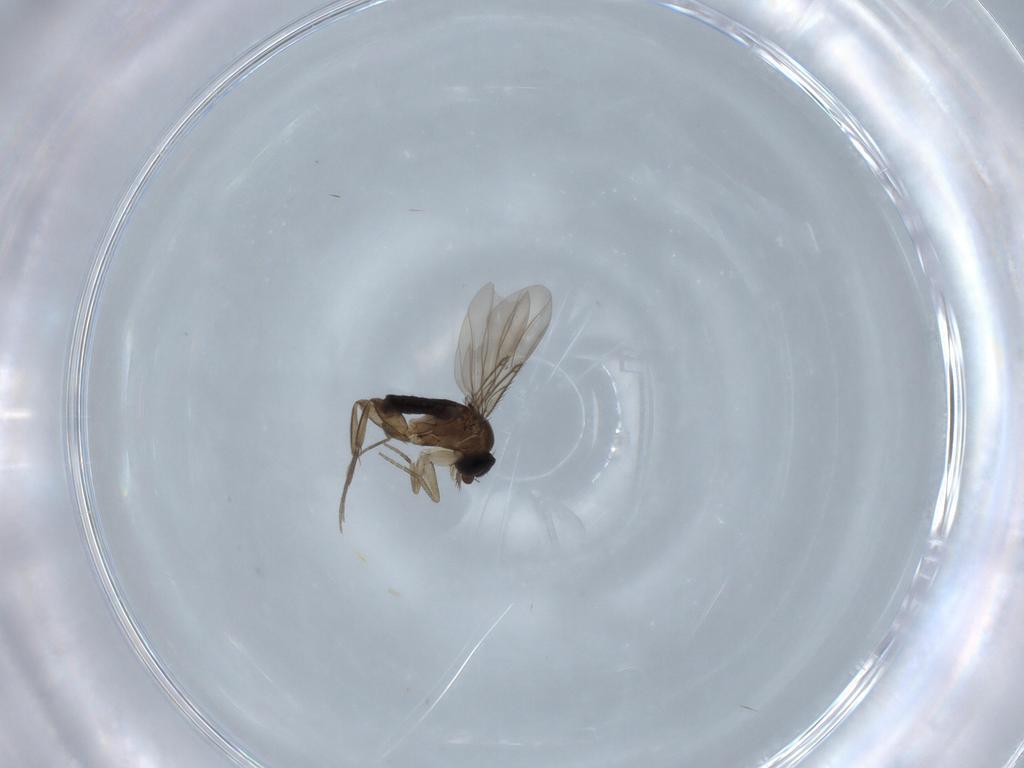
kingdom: Animalia
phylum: Arthropoda
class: Insecta
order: Diptera
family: Phoridae
